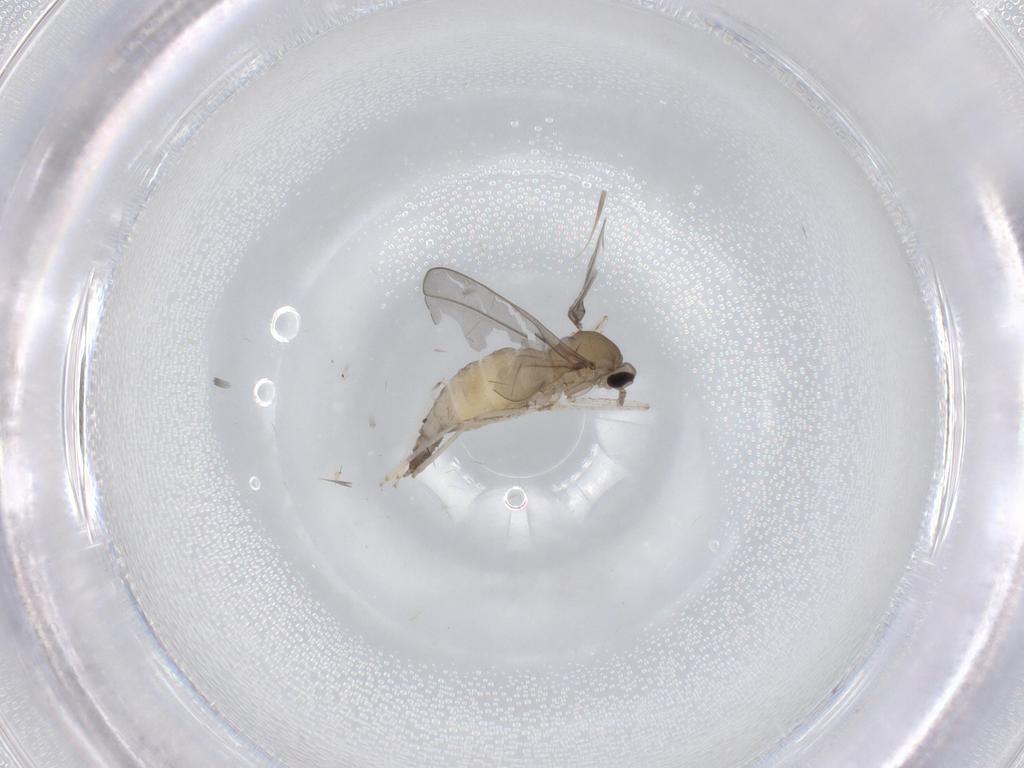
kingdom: Animalia
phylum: Arthropoda
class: Insecta
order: Diptera
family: Cecidomyiidae
